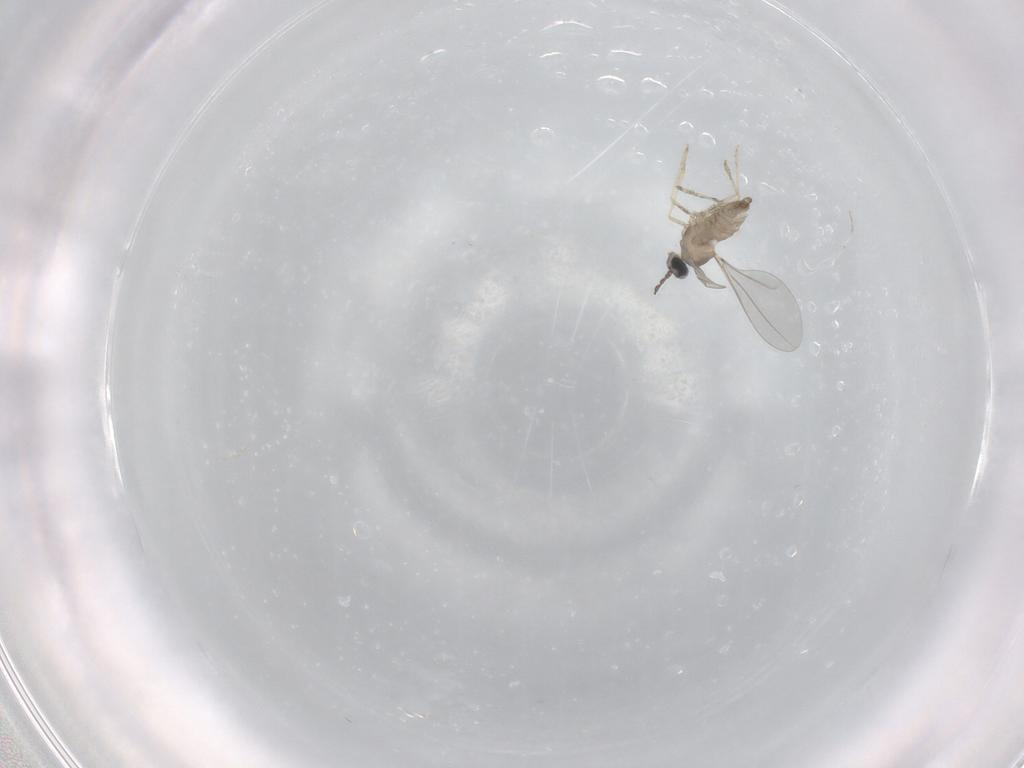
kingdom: Animalia
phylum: Arthropoda
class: Insecta
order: Diptera
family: Cecidomyiidae
